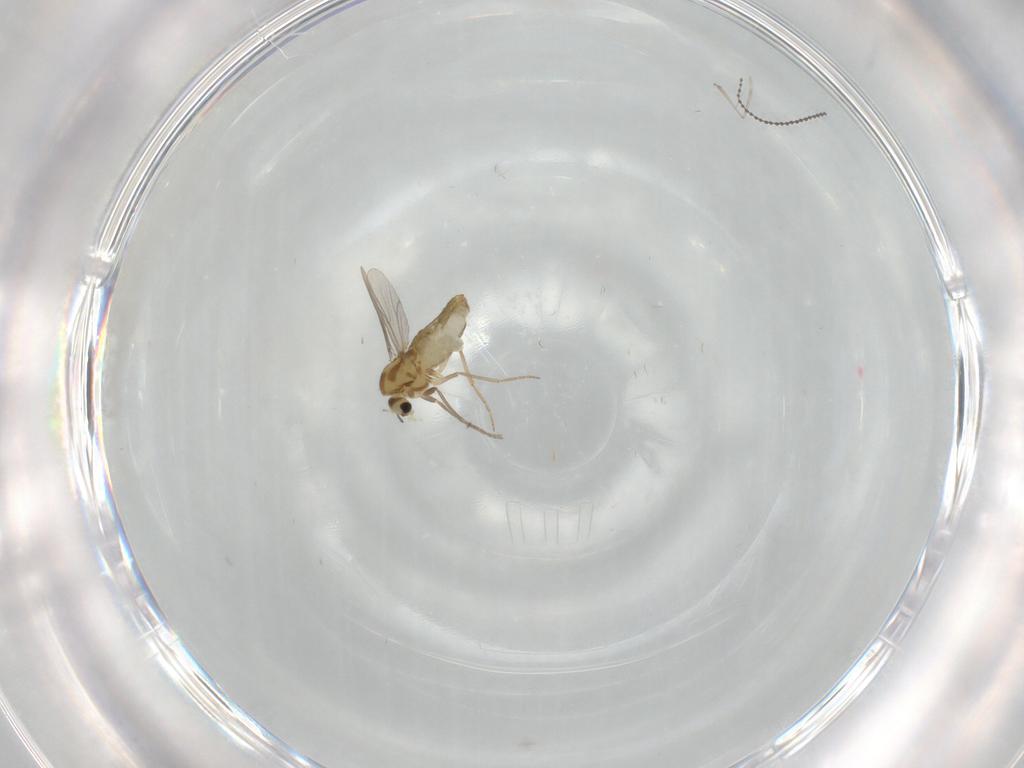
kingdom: Animalia
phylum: Arthropoda
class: Insecta
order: Diptera
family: Chironomidae
